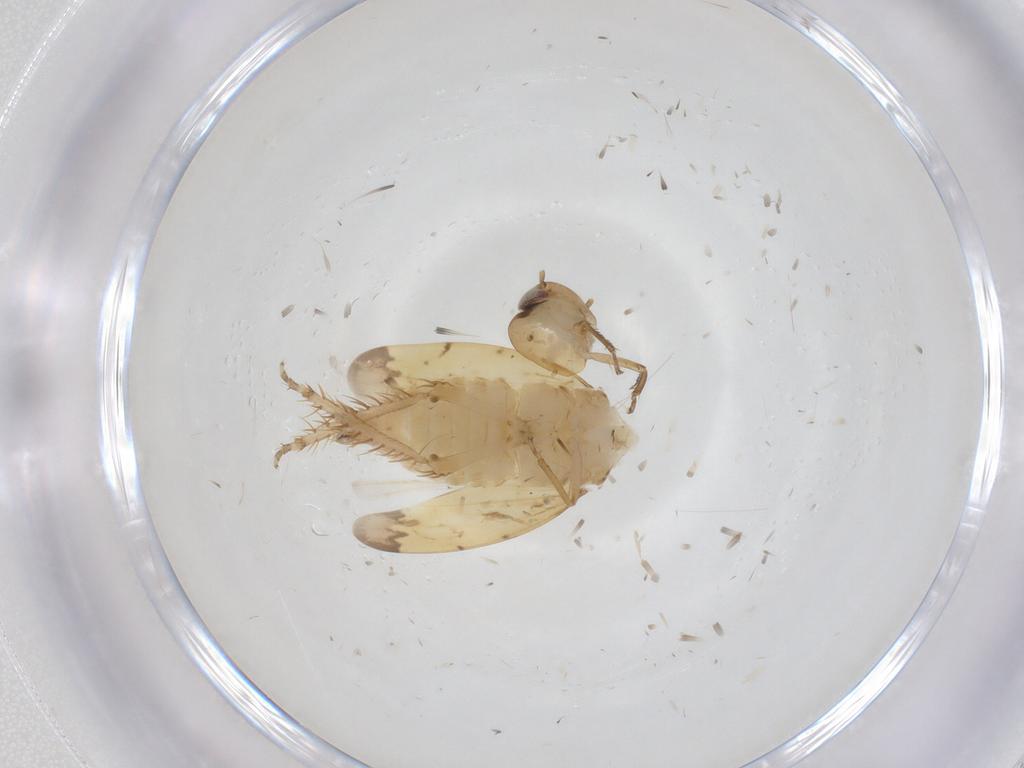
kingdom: Animalia
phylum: Arthropoda
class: Insecta
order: Hemiptera
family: Cicadellidae
